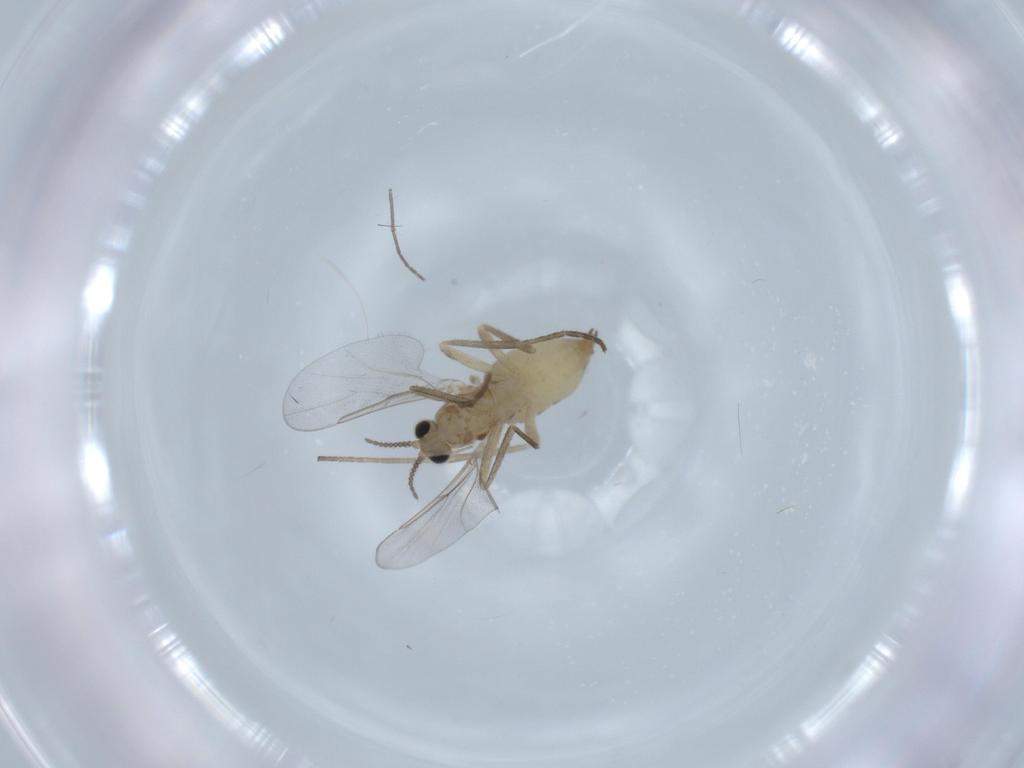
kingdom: Animalia
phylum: Arthropoda
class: Insecta
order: Diptera
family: Cecidomyiidae
